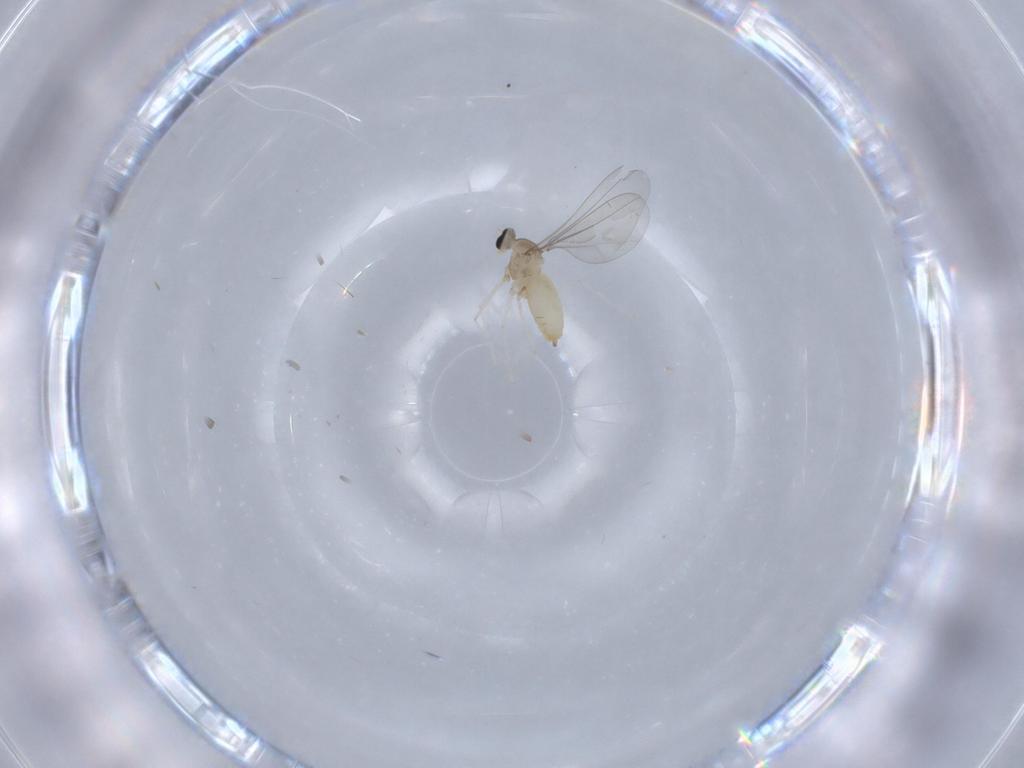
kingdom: Animalia
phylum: Arthropoda
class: Insecta
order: Diptera
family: Cecidomyiidae
